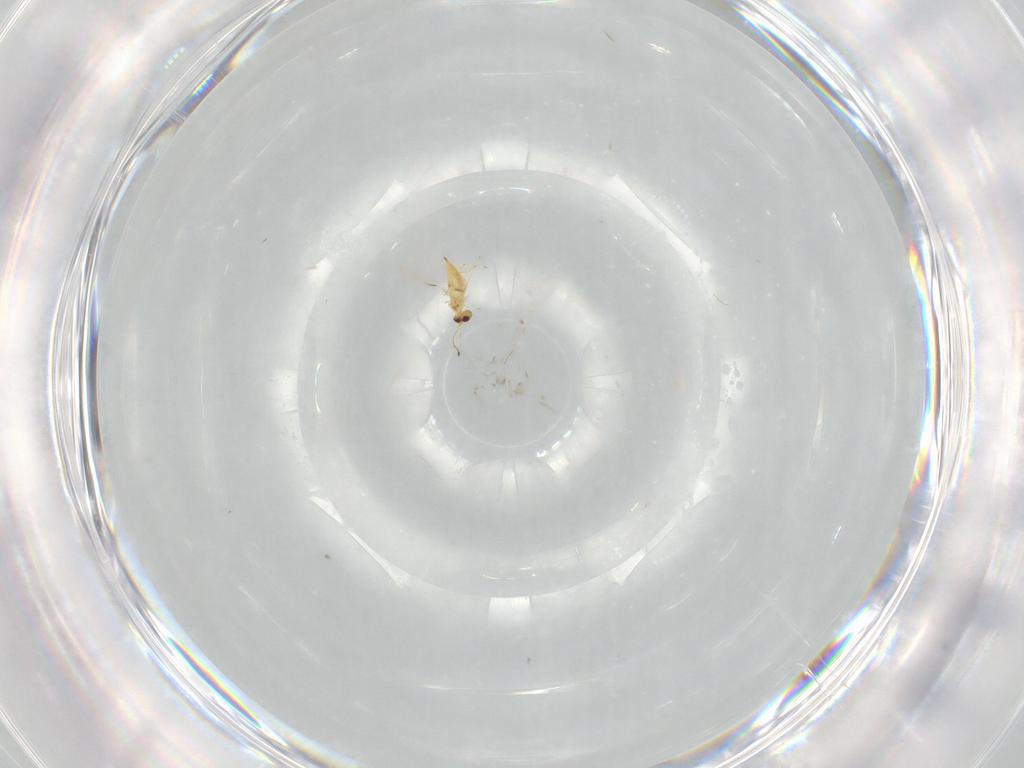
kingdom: Animalia
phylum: Arthropoda
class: Insecta
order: Hymenoptera
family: Mymaridae
